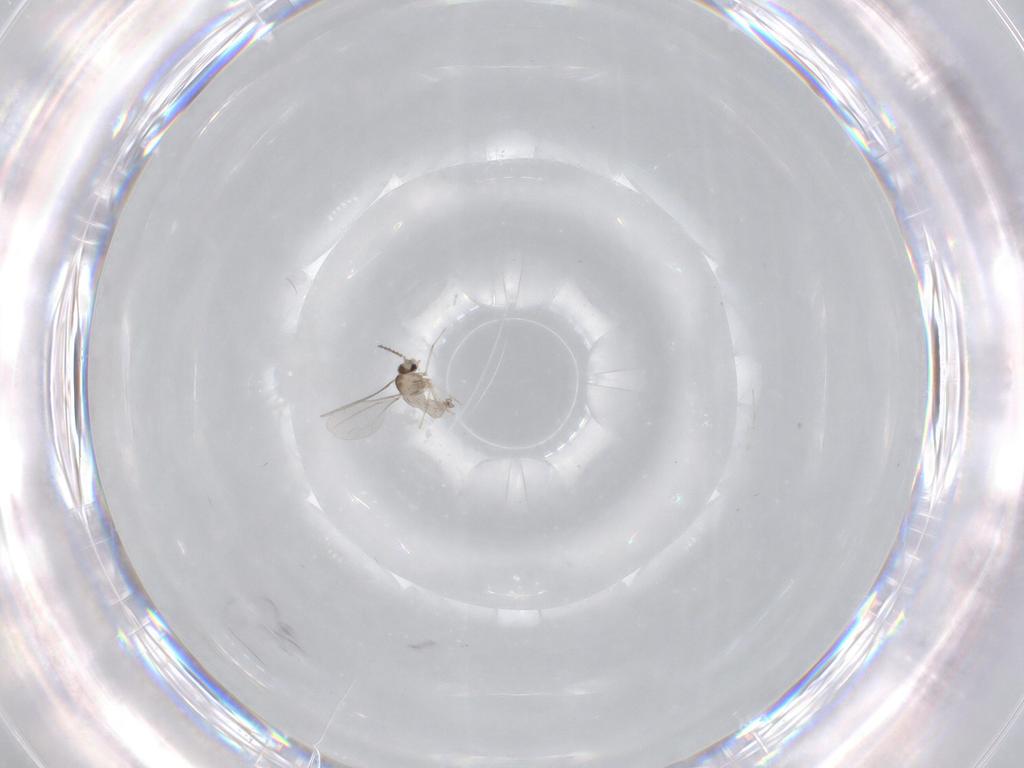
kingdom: Animalia
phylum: Arthropoda
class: Insecta
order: Diptera
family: Cecidomyiidae
